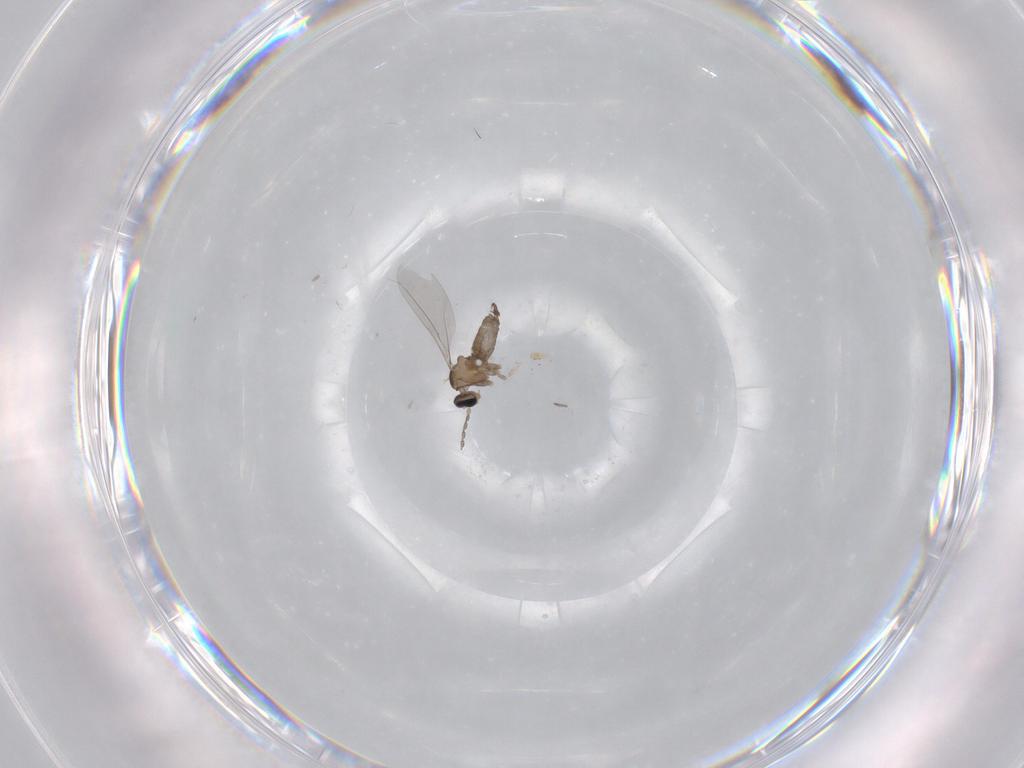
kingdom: Animalia
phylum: Arthropoda
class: Insecta
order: Diptera
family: Cecidomyiidae
